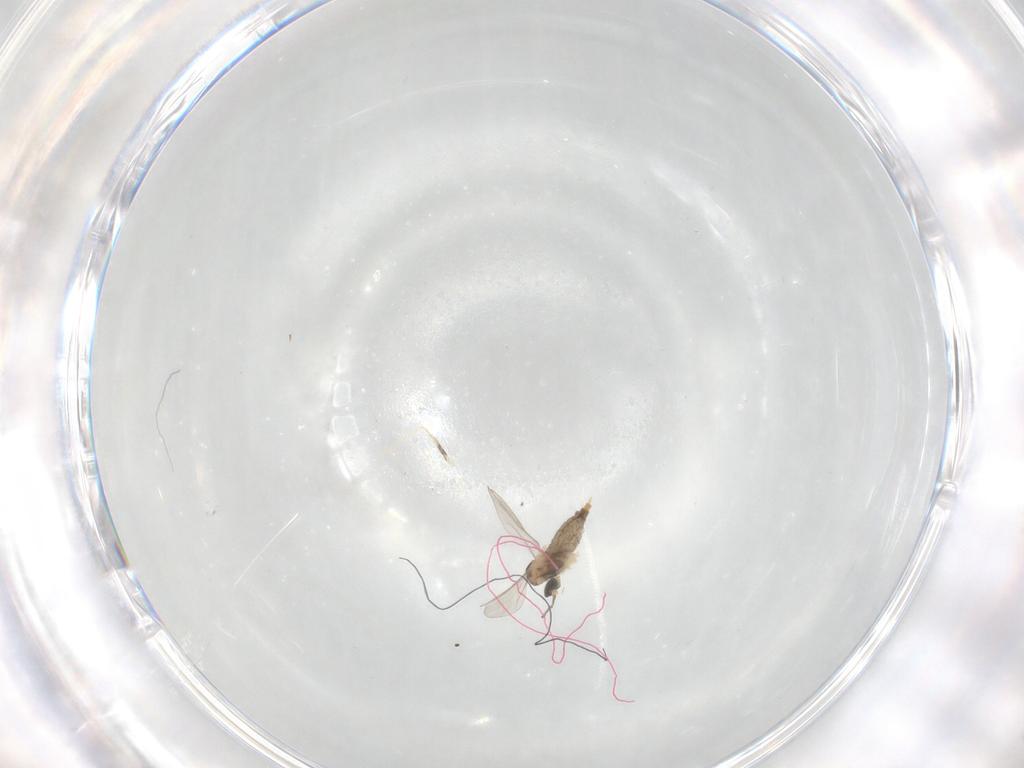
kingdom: Animalia
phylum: Arthropoda
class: Insecta
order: Diptera
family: Cecidomyiidae
